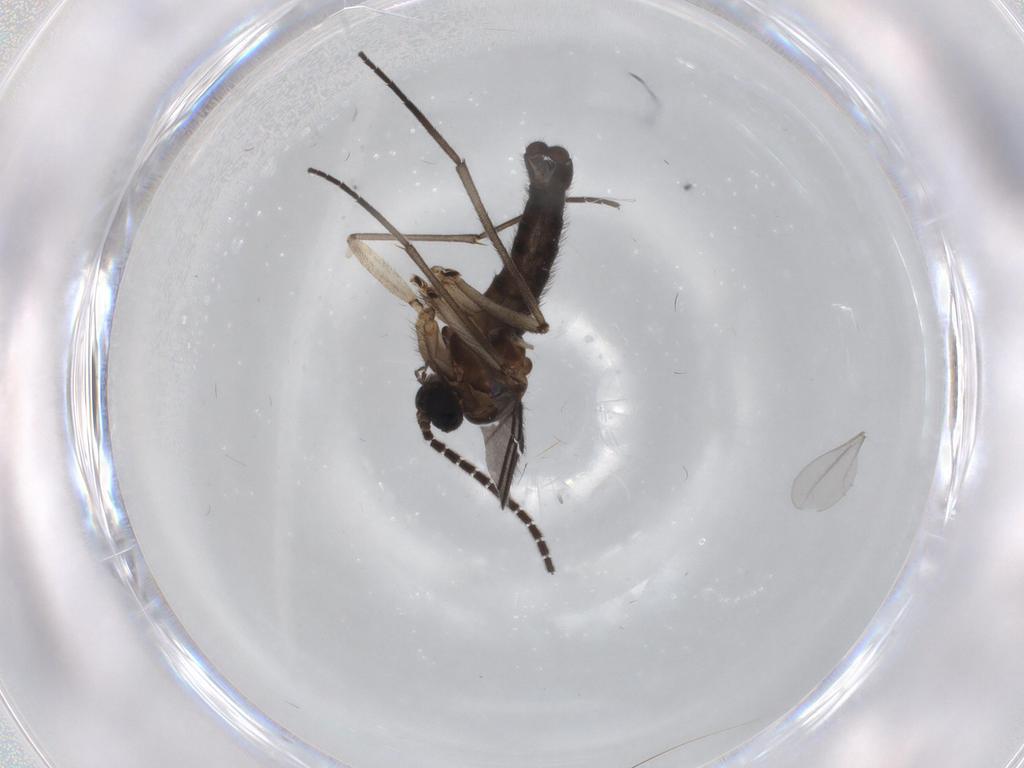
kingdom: Animalia
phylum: Arthropoda
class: Insecta
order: Diptera
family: Sciaridae
